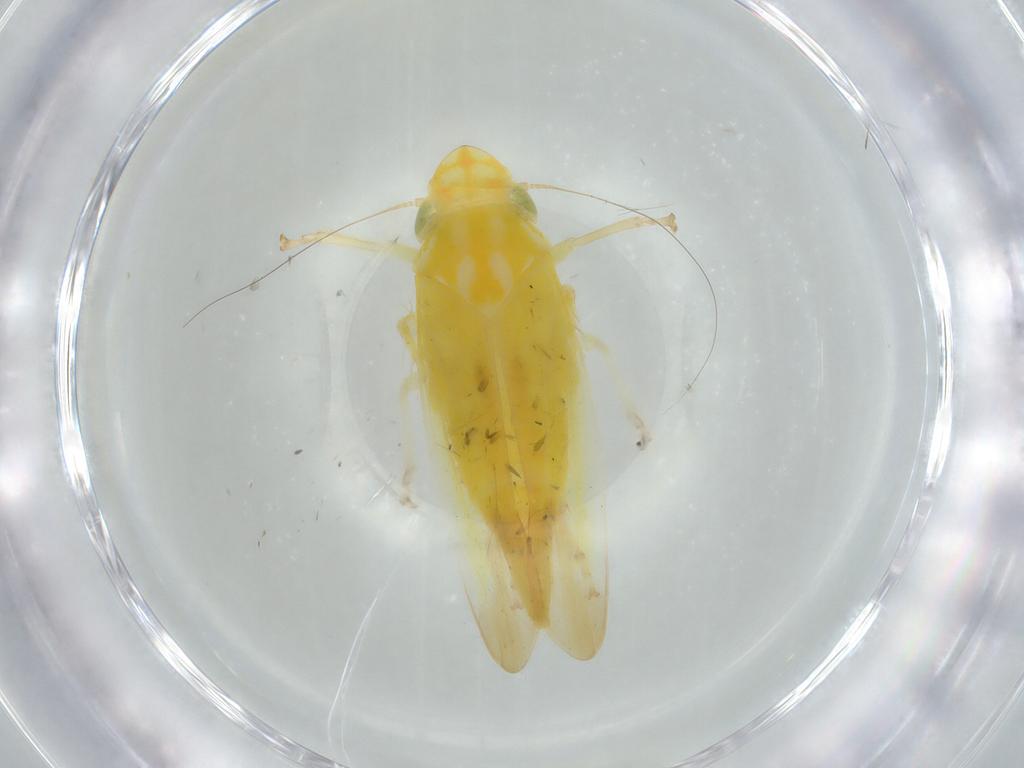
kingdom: Animalia
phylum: Arthropoda
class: Insecta
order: Hemiptera
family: Cicadellidae
